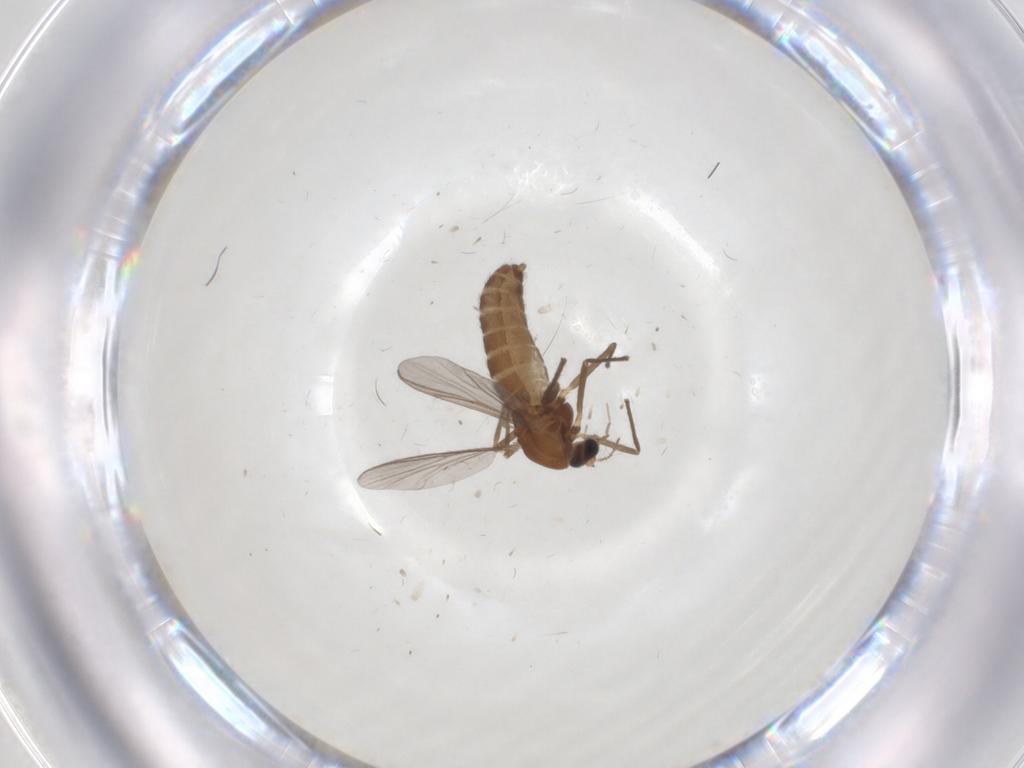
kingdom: Animalia
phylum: Arthropoda
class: Insecta
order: Diptera
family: Chironomidae
